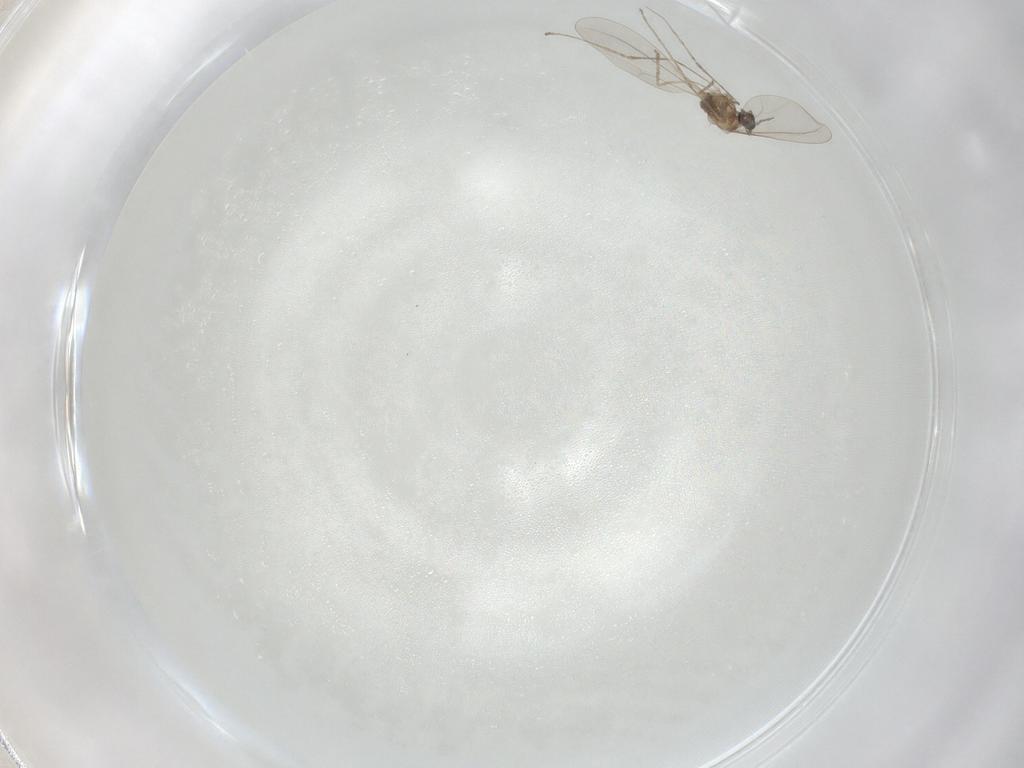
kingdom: Animalia
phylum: Arthropoda
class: Insecta
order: Diptera
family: Cecidomyiidae
